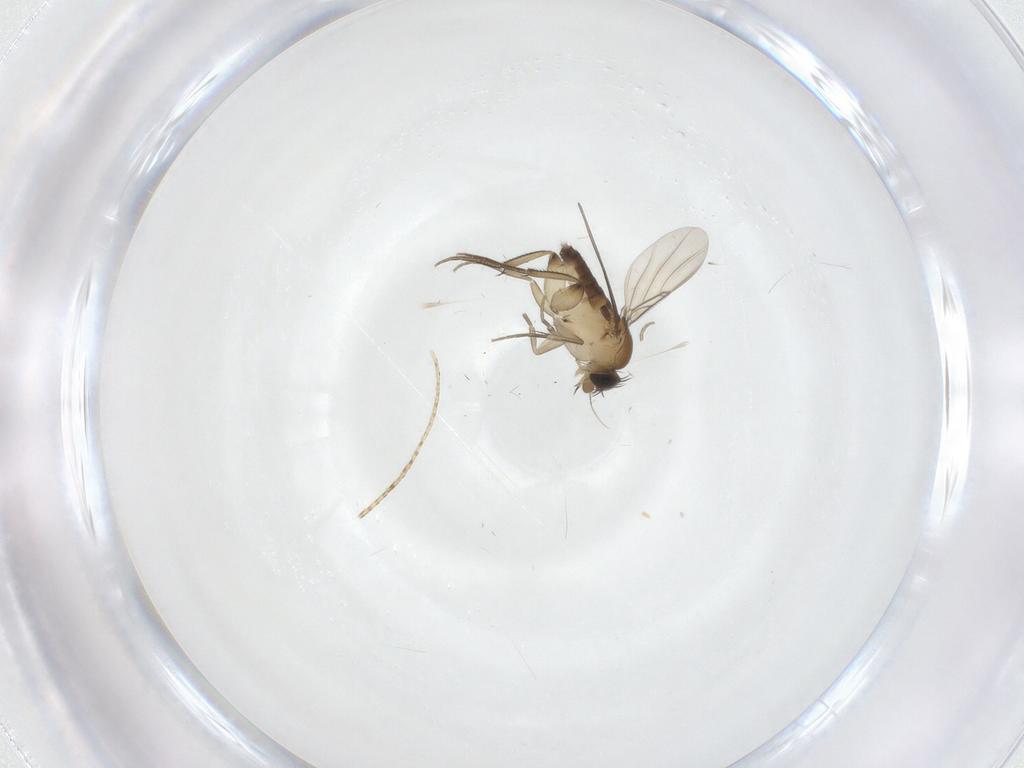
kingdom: Animalia
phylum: Arthropoda
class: Insecta
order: Diptera
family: Phoridae
